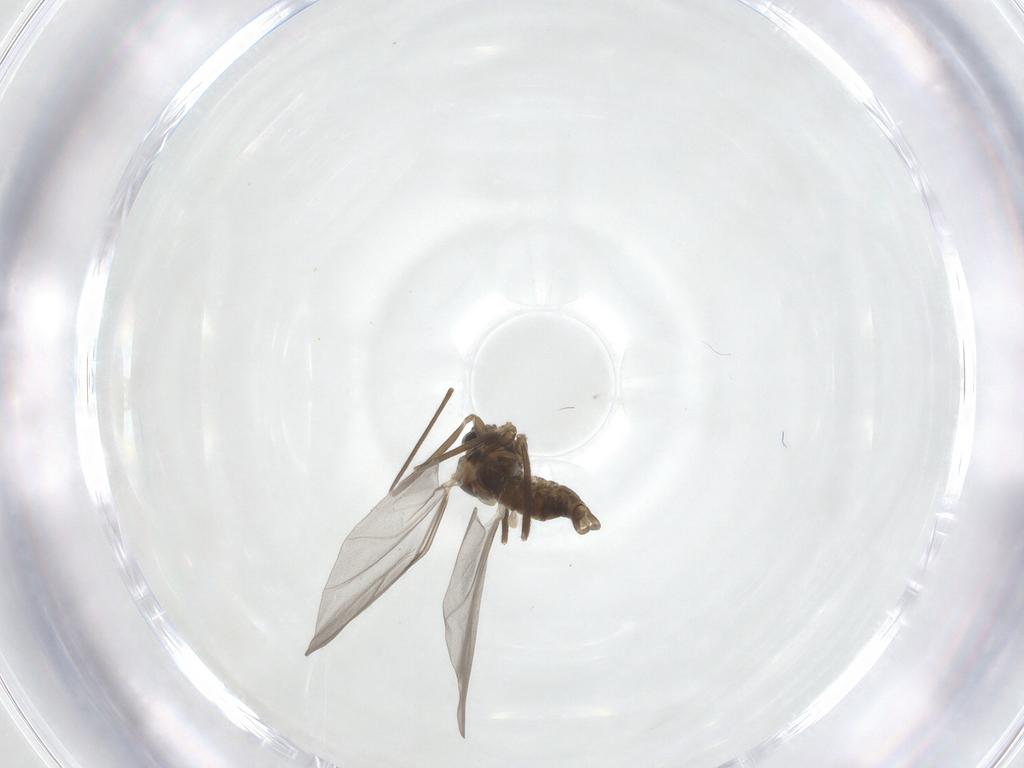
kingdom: Animalia
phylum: Arthropoda
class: Insecta
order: Diptera
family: Cecidomyiidae
